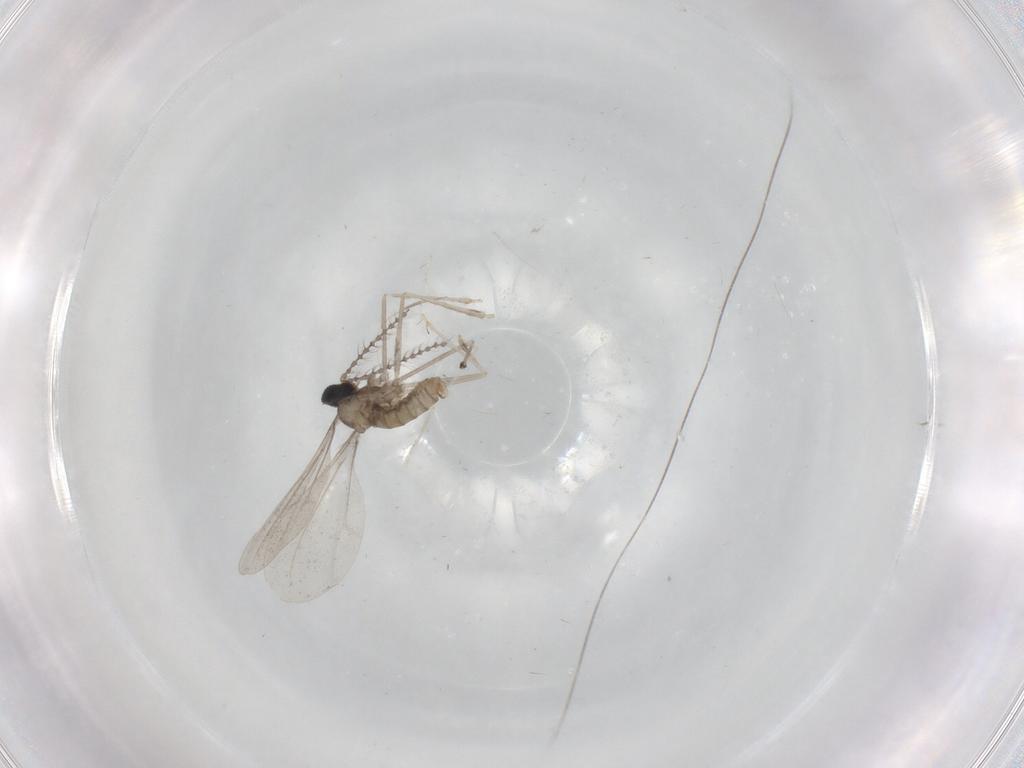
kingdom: Animalia
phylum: Arthropoda
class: Insecta
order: Diptera
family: Cecidomyiidae
